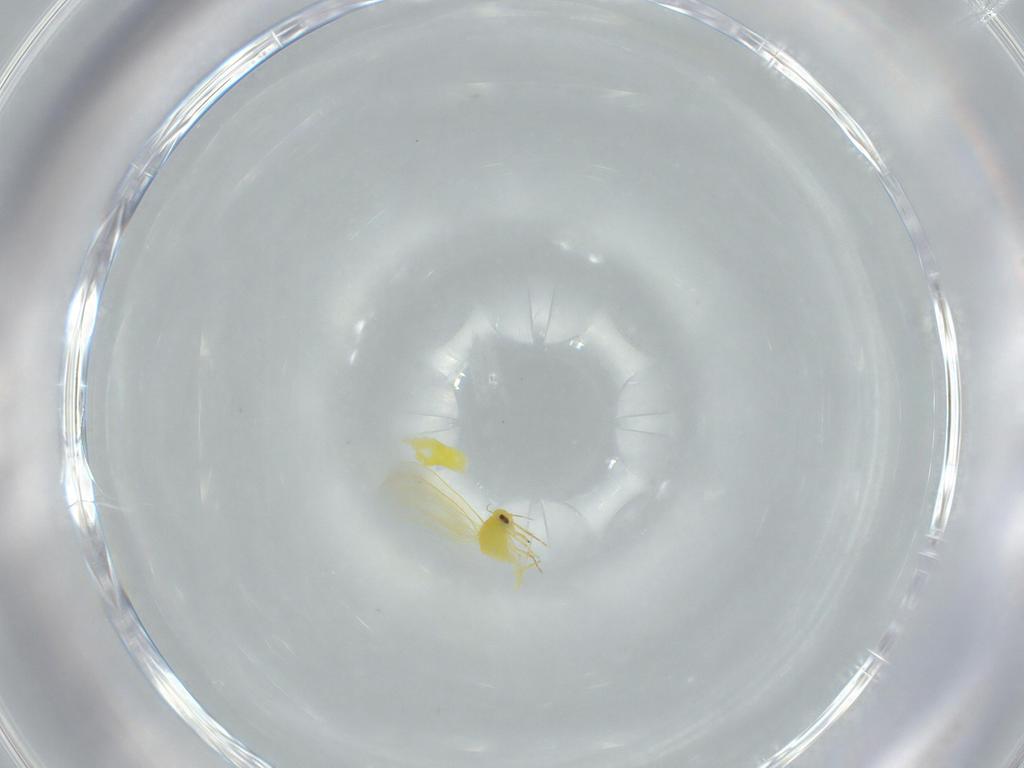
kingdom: Animalia
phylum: Arthropoda
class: Insecta
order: Hemiptera
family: Aleyrodidae
